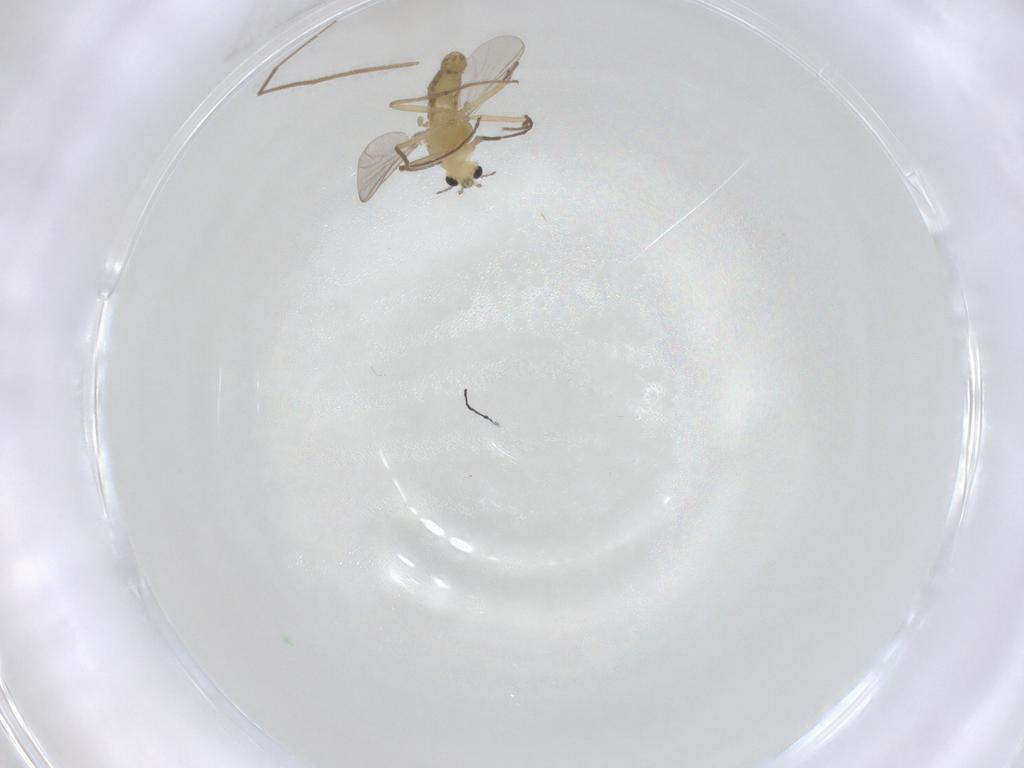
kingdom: Animalia
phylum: Arthropoda
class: Insecta
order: Diptera
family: Chironomidae
